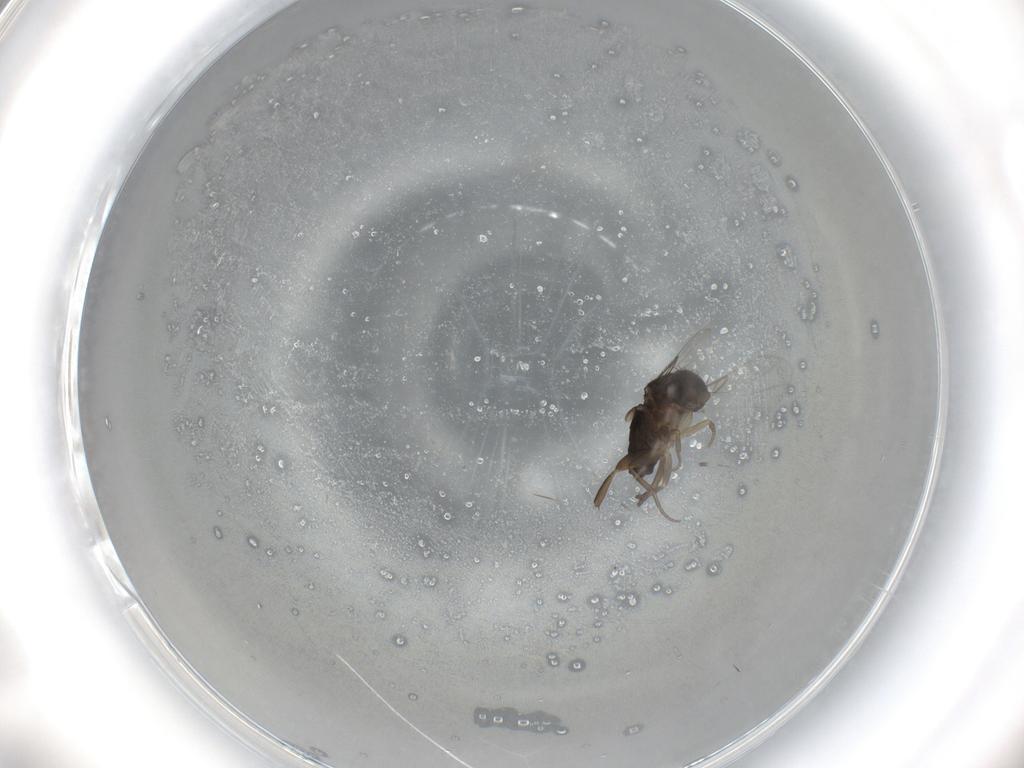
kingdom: Animalia
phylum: Arthropoda
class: Insecta
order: Diptera
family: Phoridae
